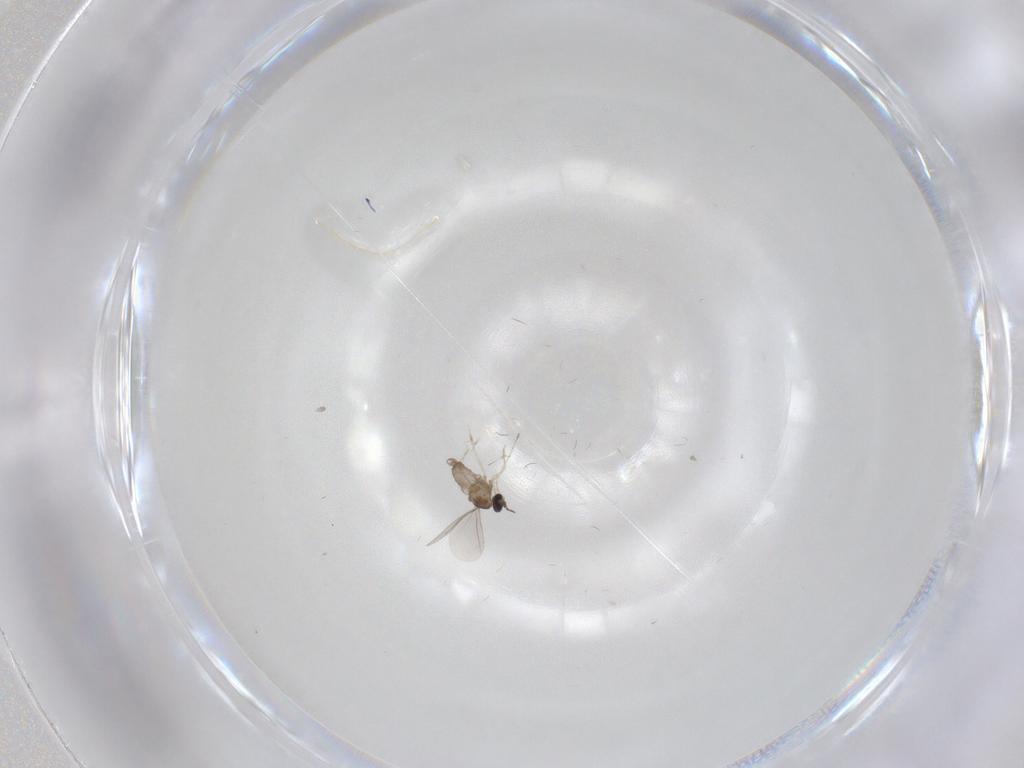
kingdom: Animalia
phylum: Arthropoda
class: Insecta
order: Diptera
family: Cecidomyiidae
